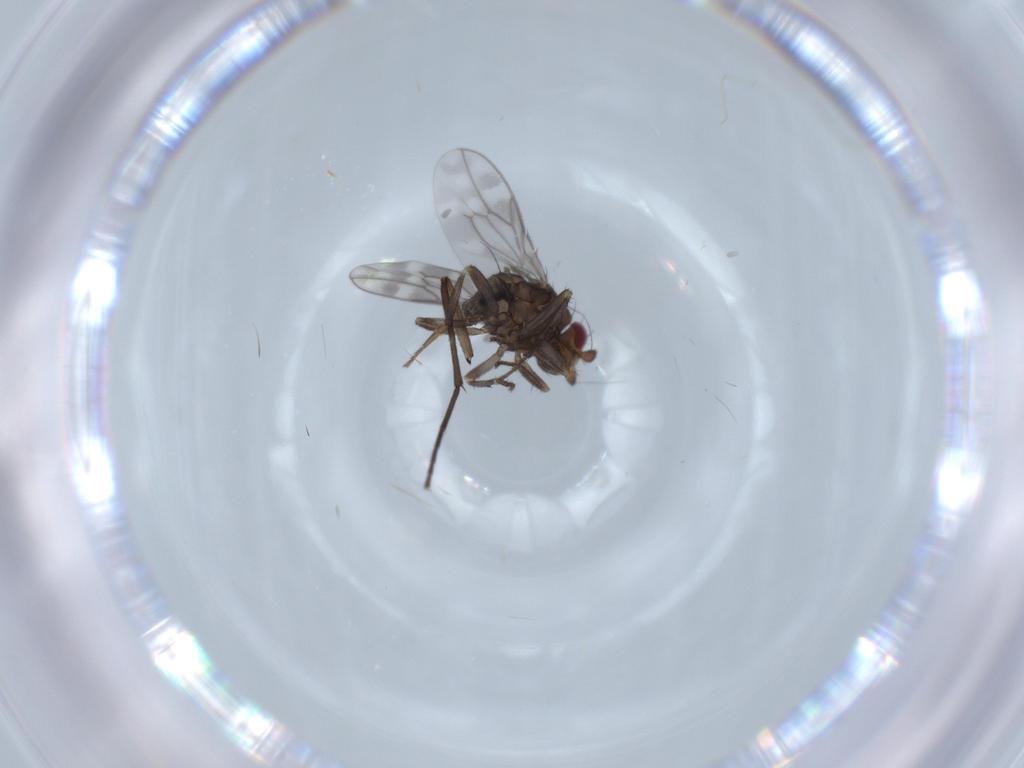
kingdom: Animalia
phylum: Arthropoda
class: Insecta
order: Diptera
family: Sphaeroceridae
